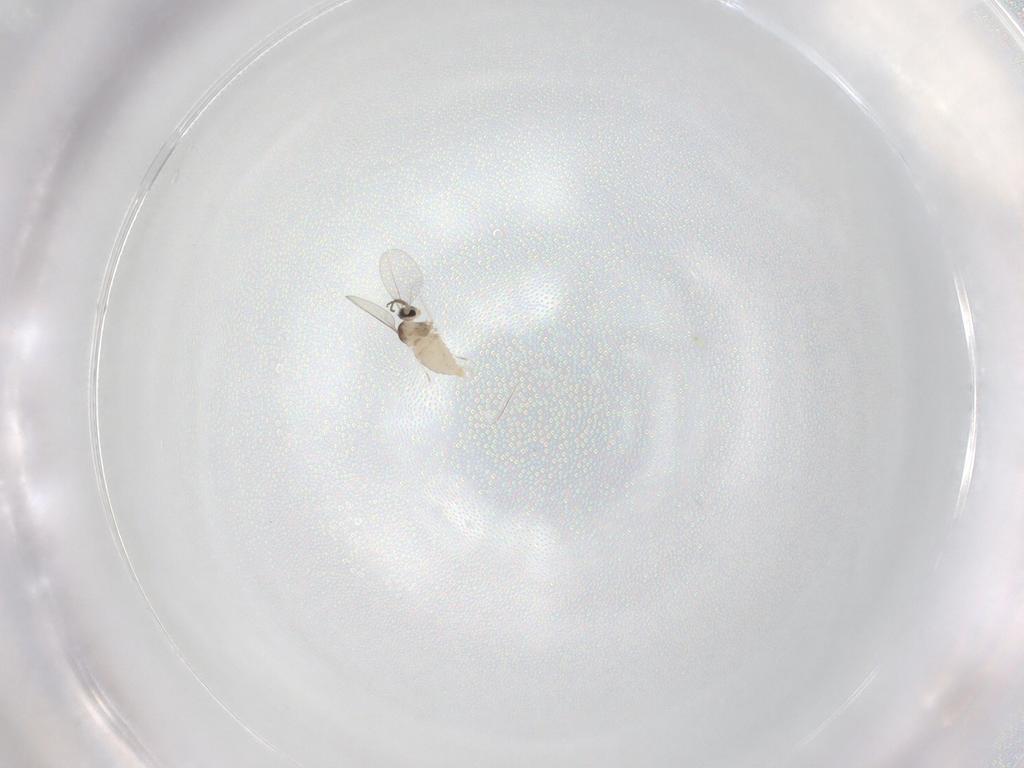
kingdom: Animalia
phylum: Arthropoda
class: Insecta
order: Diptera
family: Cecidomyiidae
